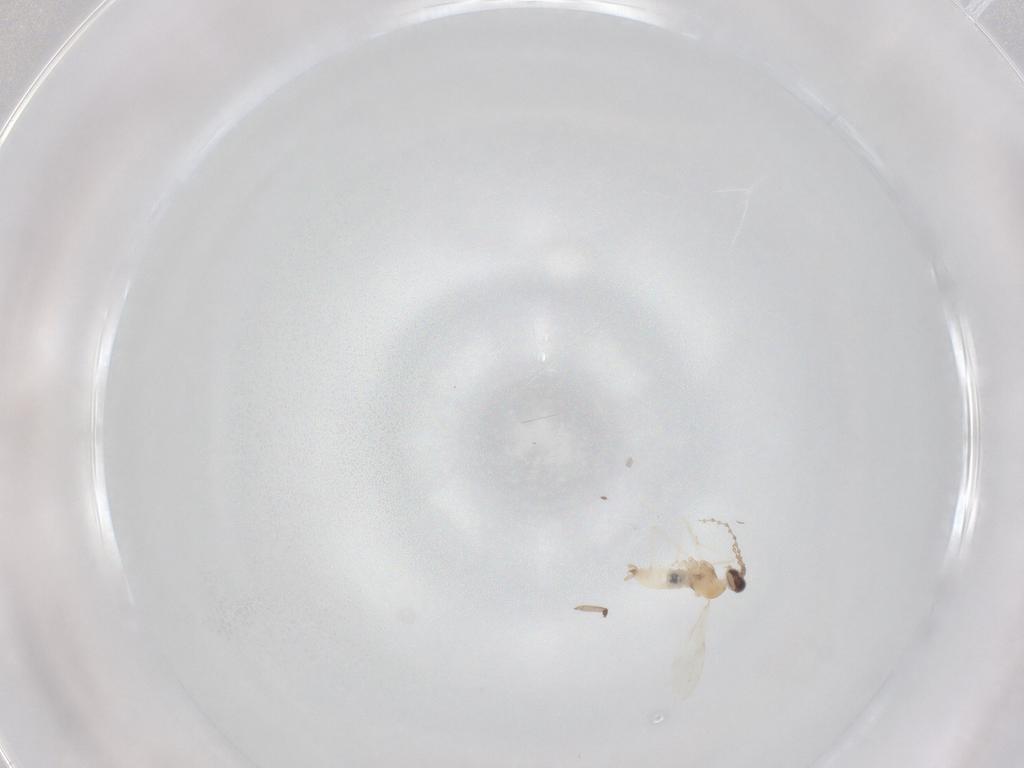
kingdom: Animalia
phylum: Arthropoda
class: Insecta
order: Diptera
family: Cecidomyiidae
